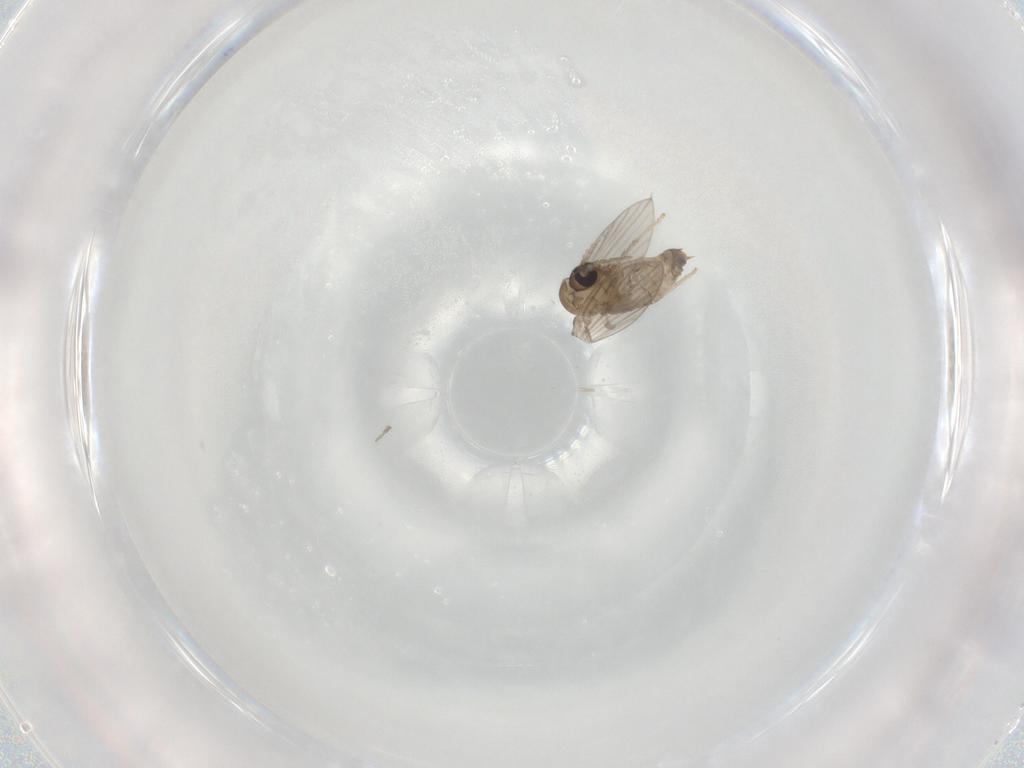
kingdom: Animalia
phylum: Arthropoda
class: Insecta
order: Diptera
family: Psychodidae
